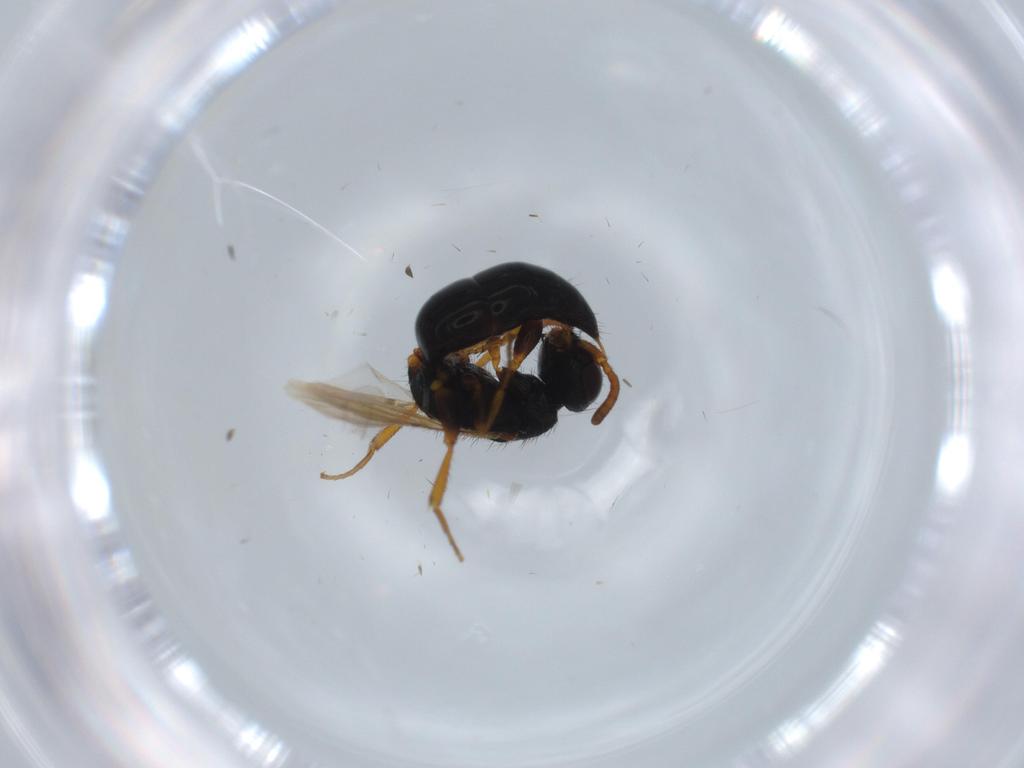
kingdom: Animalia
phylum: Arthropoda
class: Insecta
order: Hymenoptera
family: Bethylidae
